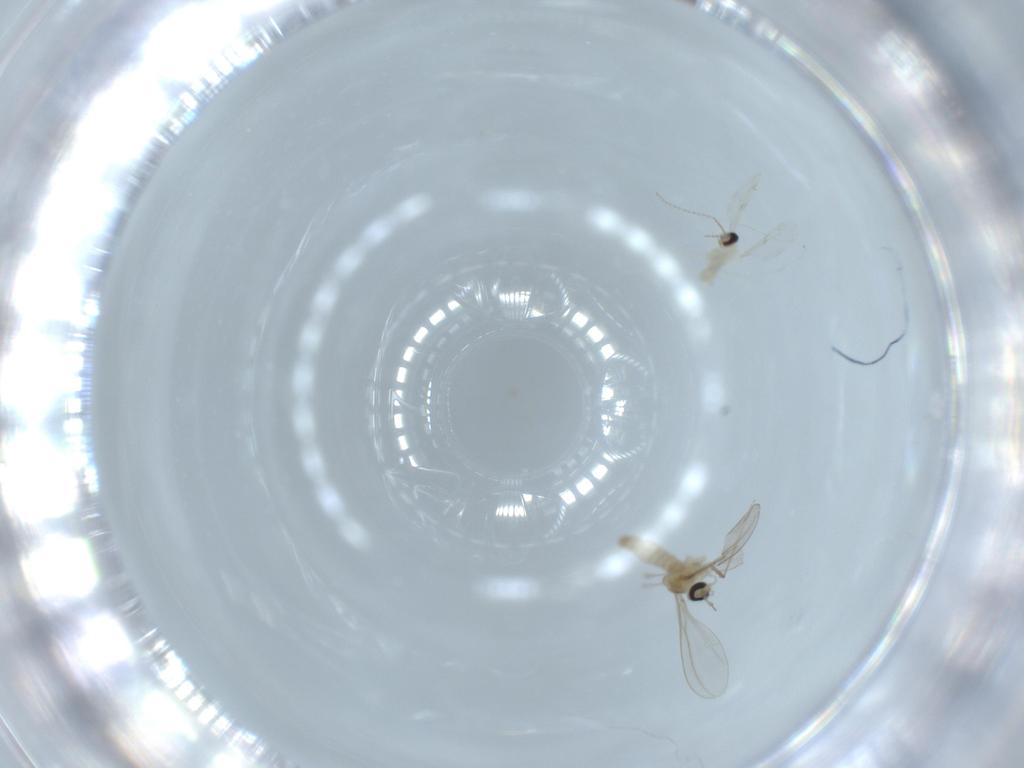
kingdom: Animalia
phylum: Arthropoda
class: Insecta
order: Diptera
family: Cecidomyiidae
